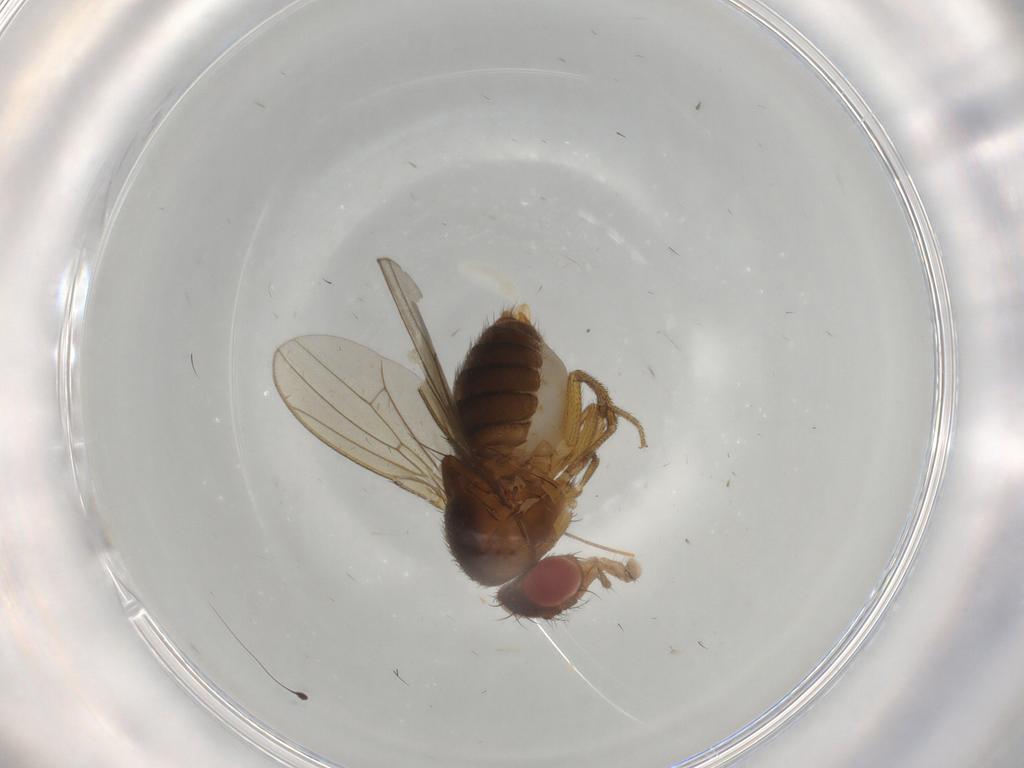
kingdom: Animalia
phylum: Arthropoda
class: Insecta
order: Diptera
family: Drosophilidae
